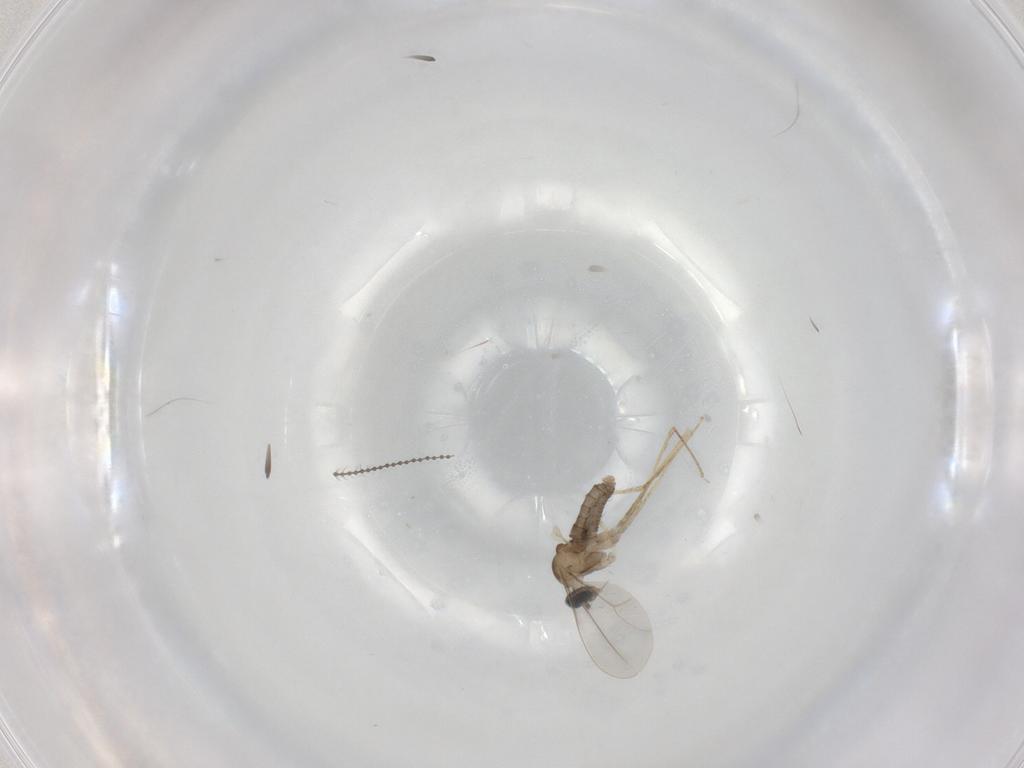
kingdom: Animalia
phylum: Arthropoda
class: Insecta
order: Diptera
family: Cecidomyiidae
